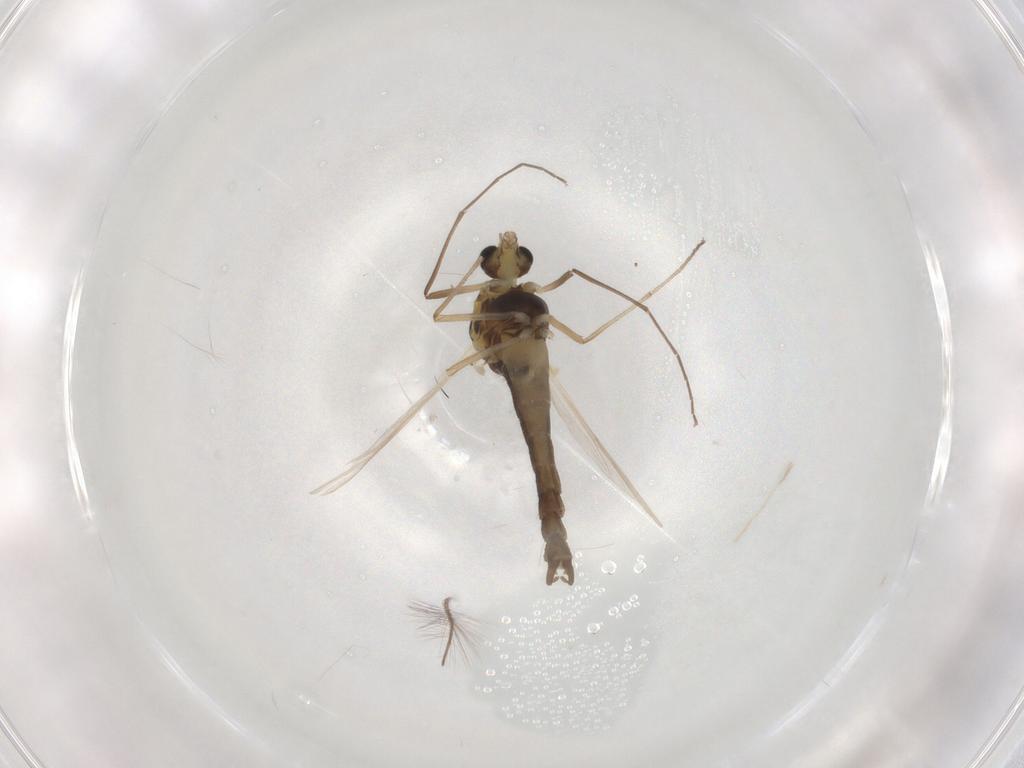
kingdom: Animalia
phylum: Arthropoda
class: Insecta
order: Diptera
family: Chironomidae
